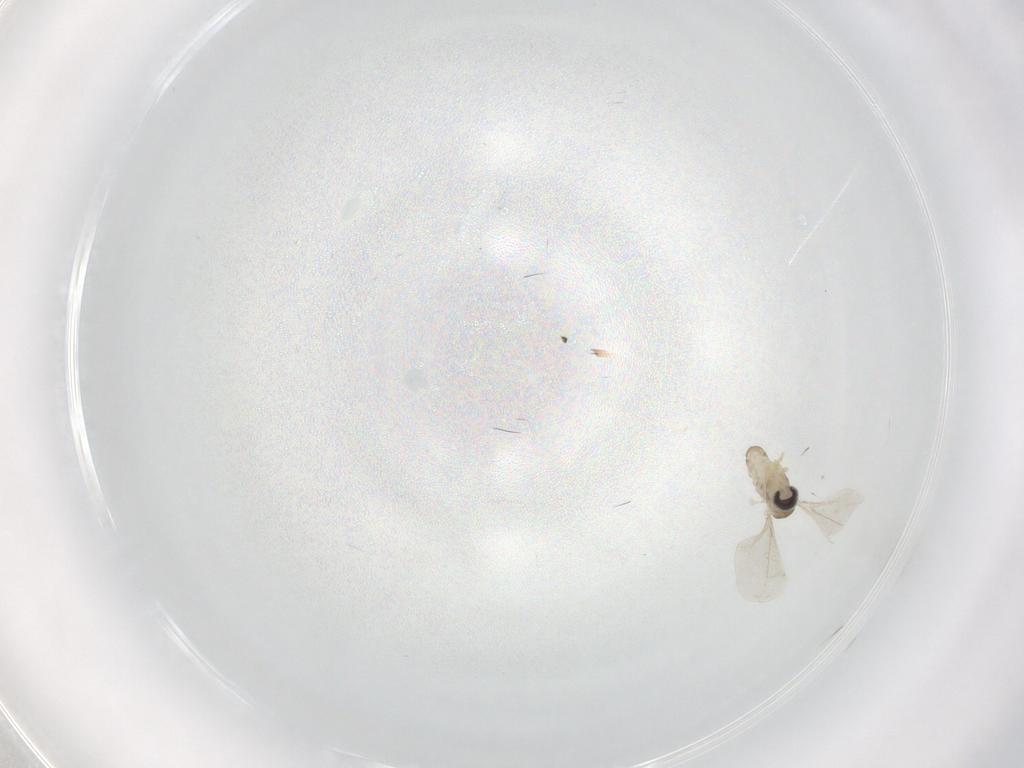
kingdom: Animalia
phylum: Arthropoda
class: Insecta
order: Diptera
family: Cecidomyiidae
